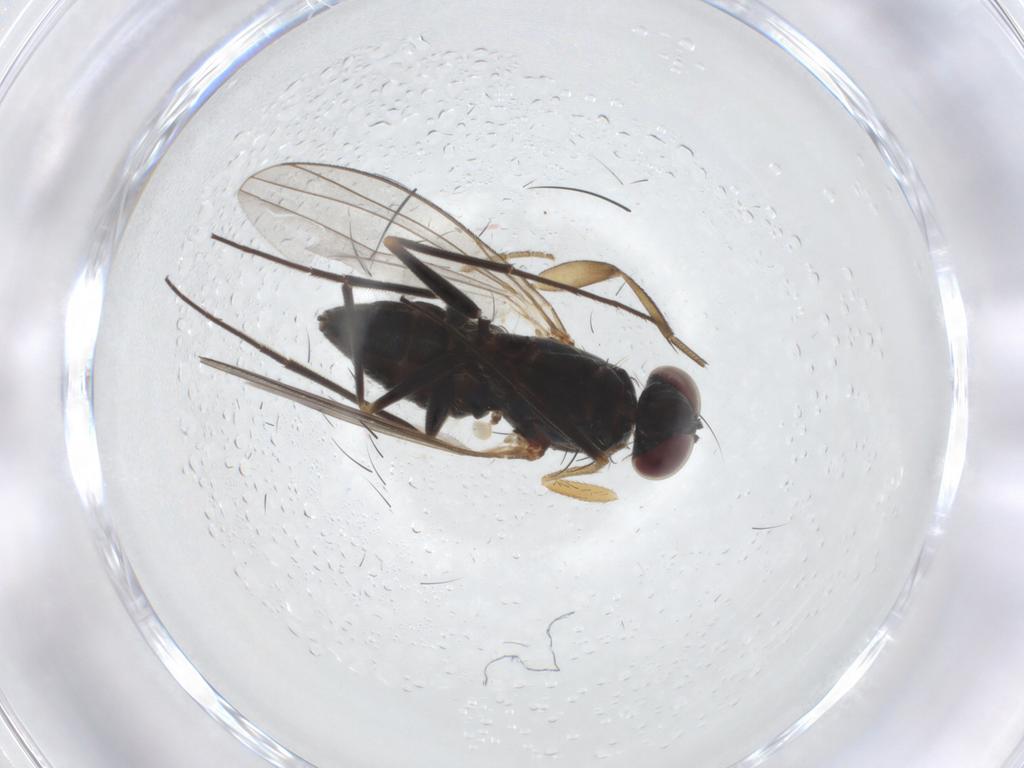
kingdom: Animalia
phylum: Arthropoda
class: Insecta
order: Diptera
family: Dolichopodidae
